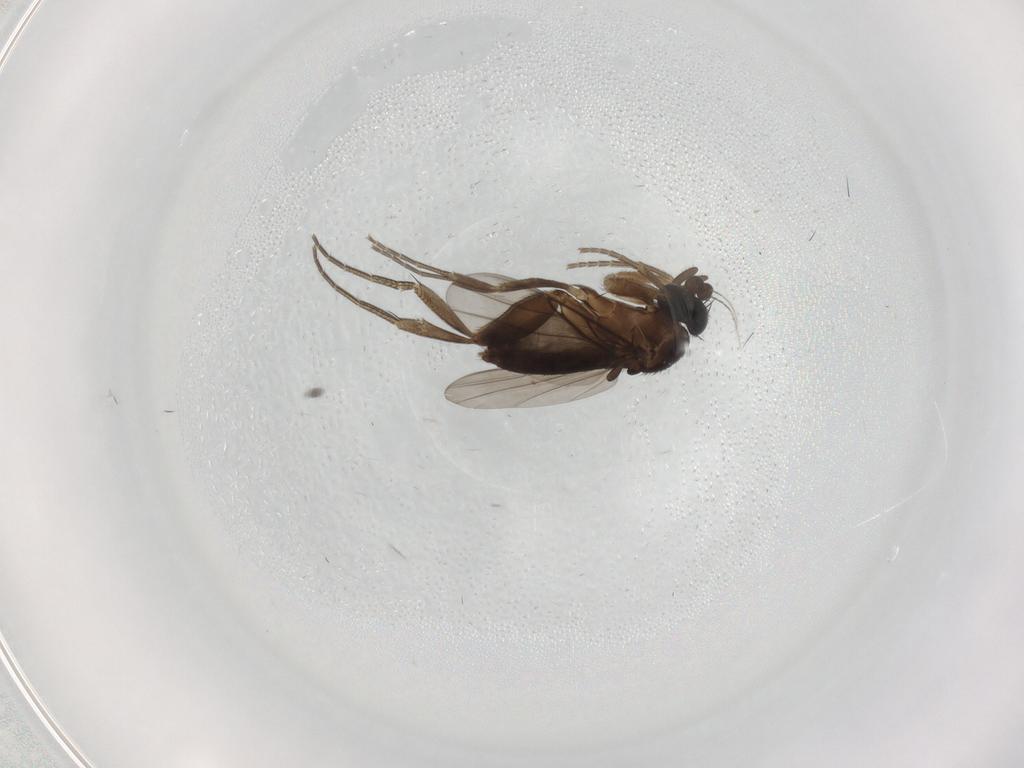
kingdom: Animalia
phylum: Arthropoda
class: Insecta
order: Diptera
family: Phoridae
